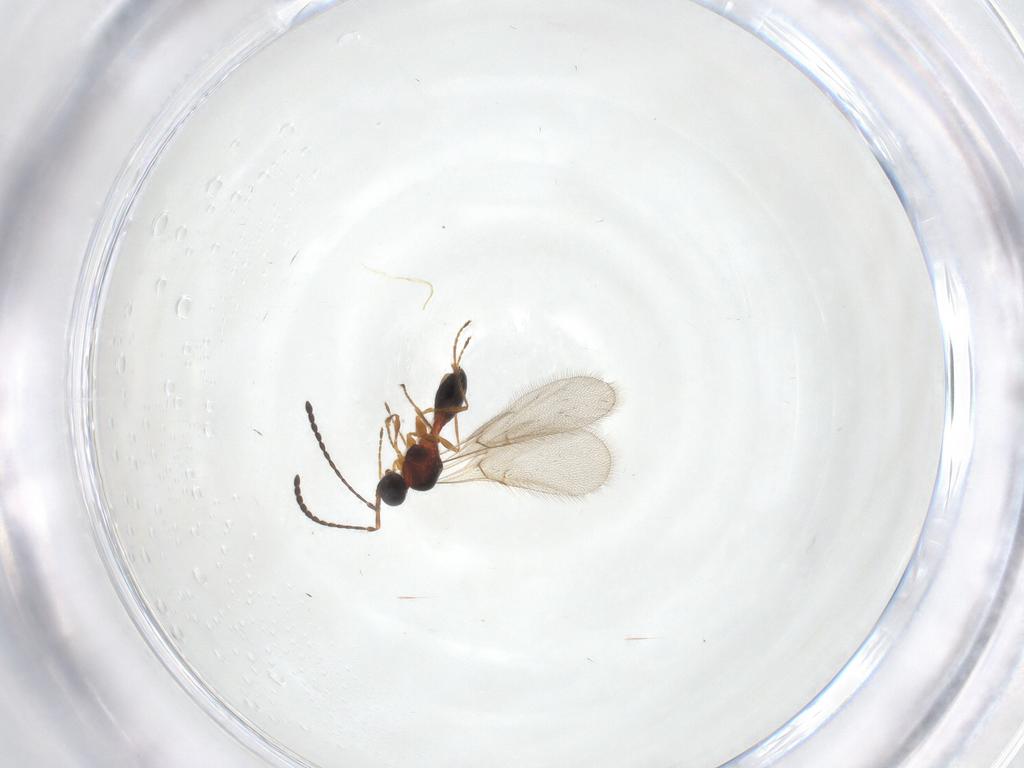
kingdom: Animalia
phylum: Arthropoda
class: Insecta
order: Hymenoptera
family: Diapriidae
